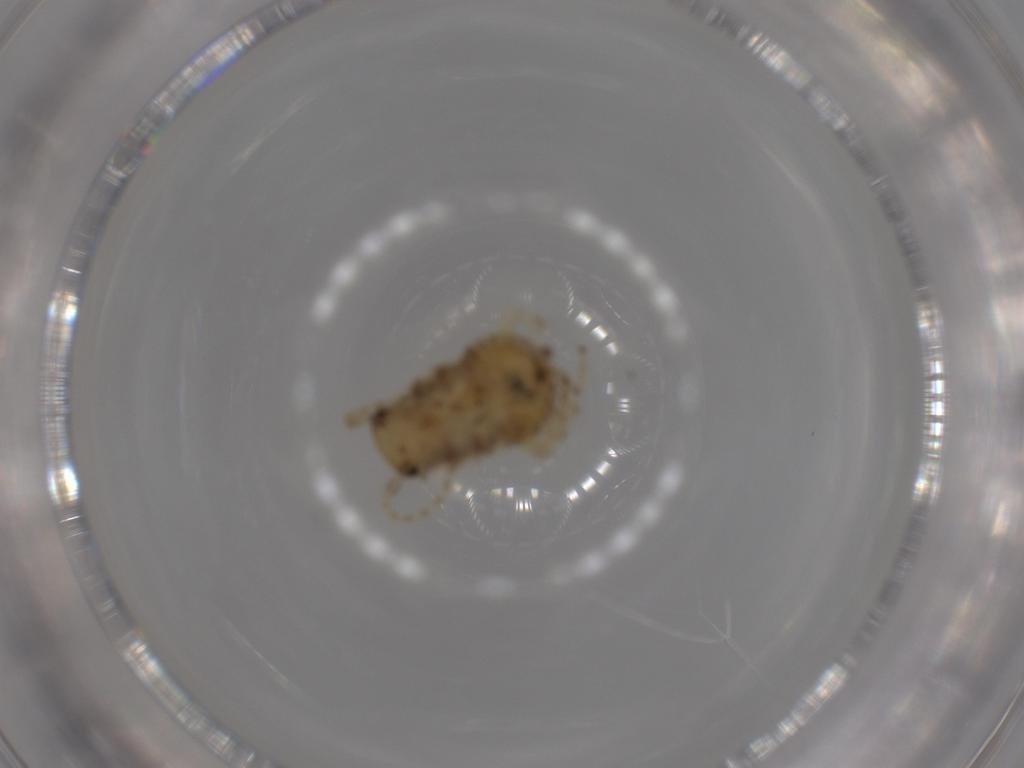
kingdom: Animalia
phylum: Arthropoda
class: Insecta
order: Blattodea
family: Ectobiidae
